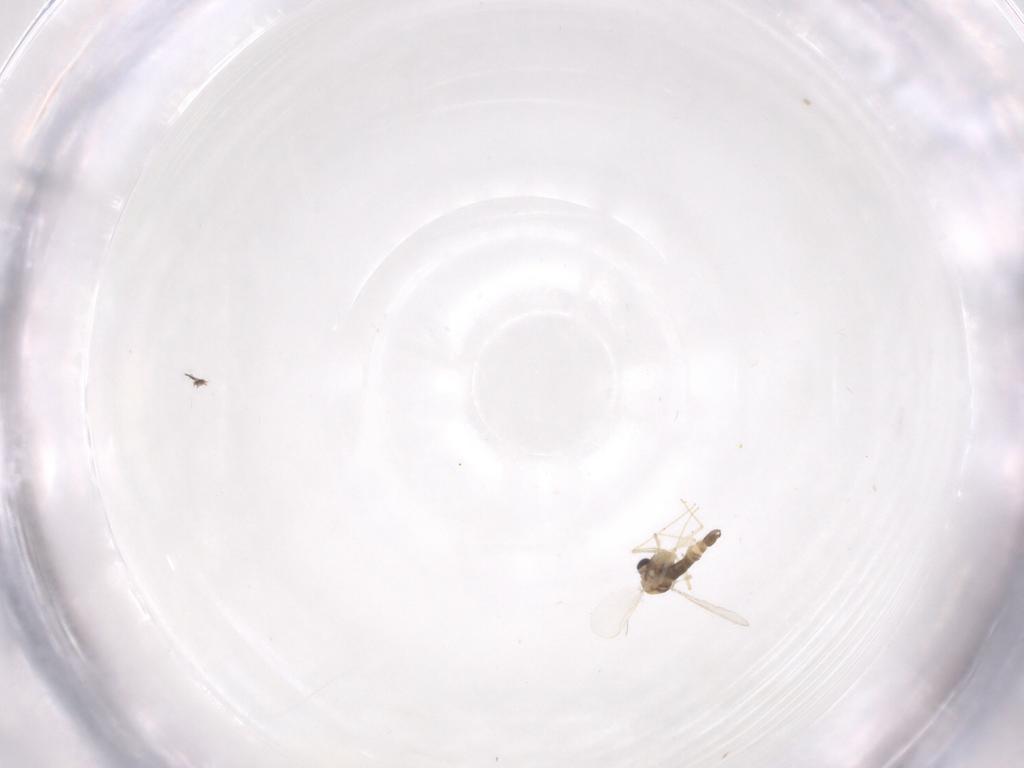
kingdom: Animalia
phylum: Arthropoda
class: Insecta
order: Diptera
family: Chironomidae
